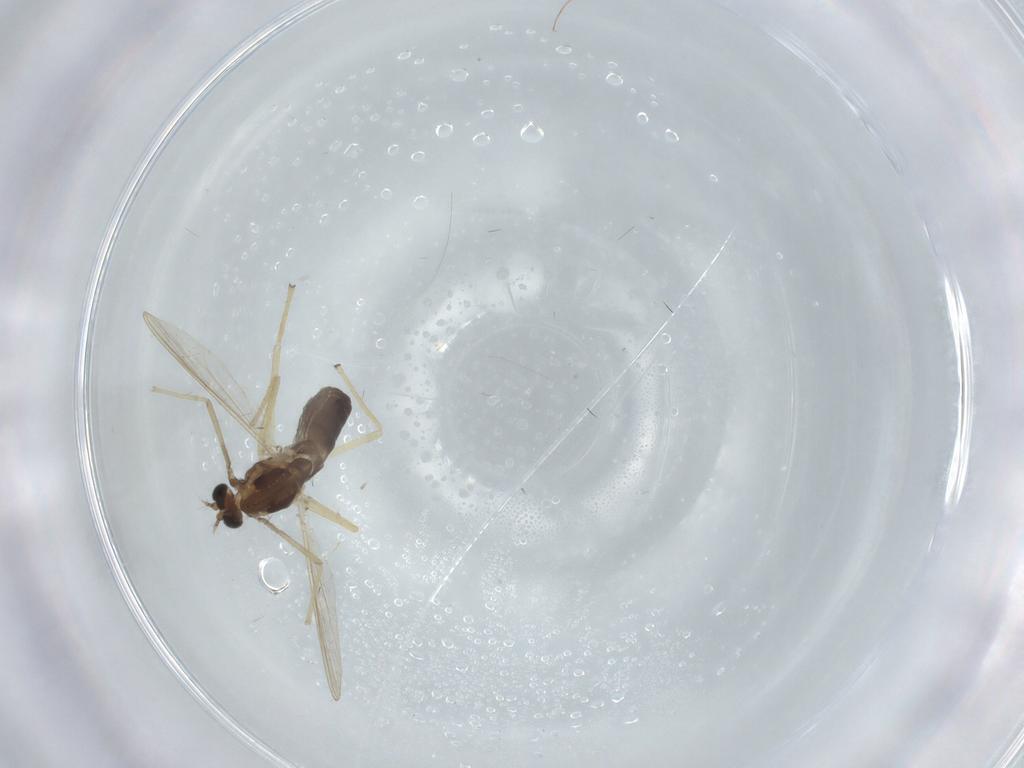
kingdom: Animalia
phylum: Arthropoda
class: Insecta
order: Diptera
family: Chironomidae
